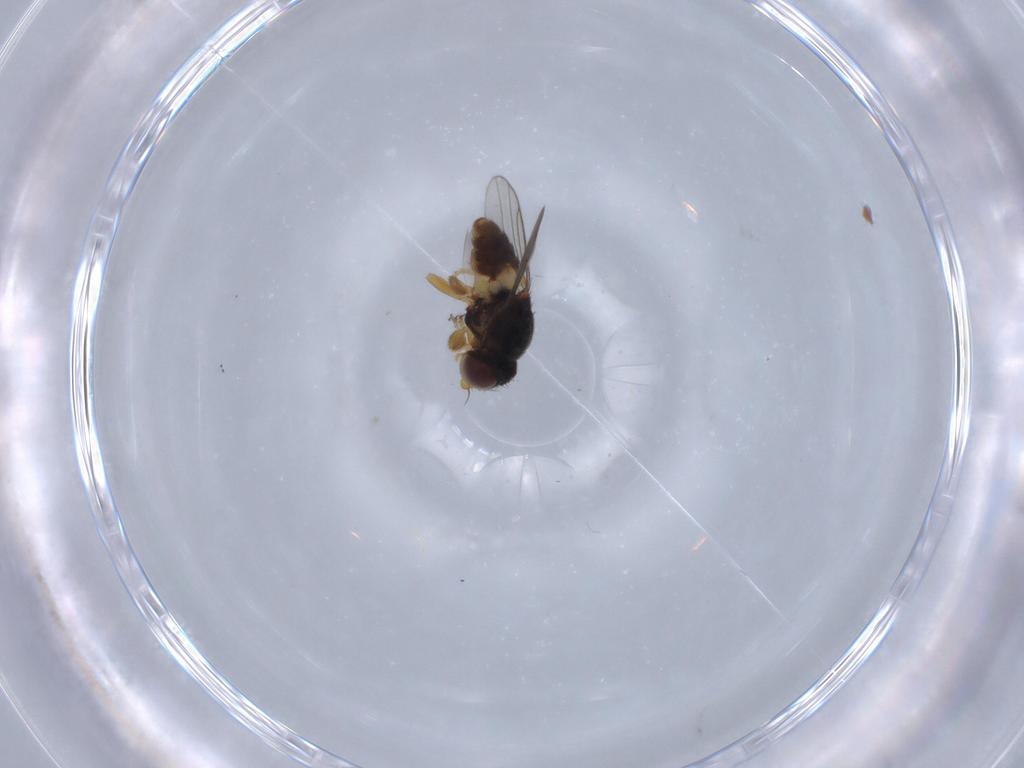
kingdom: Animalia
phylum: Arthropoda
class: Insecta
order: Diptera
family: Chloropidae
